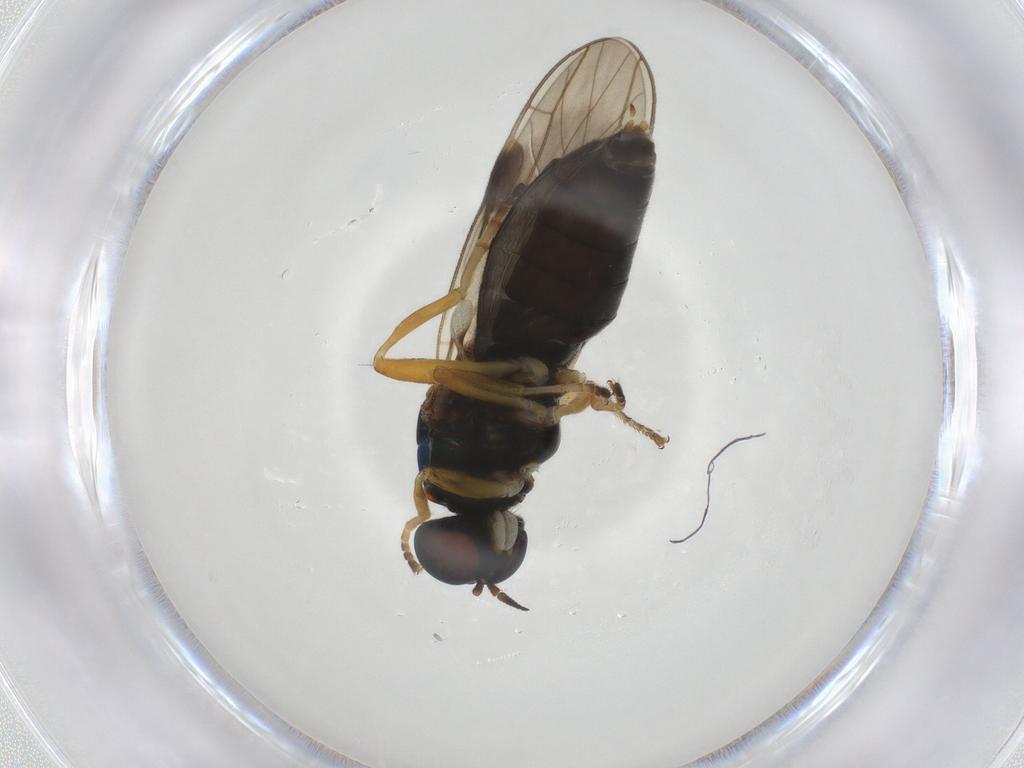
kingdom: Animalia
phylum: Arthropoda
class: Insecta
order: Diptera
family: Stratiomyidae
